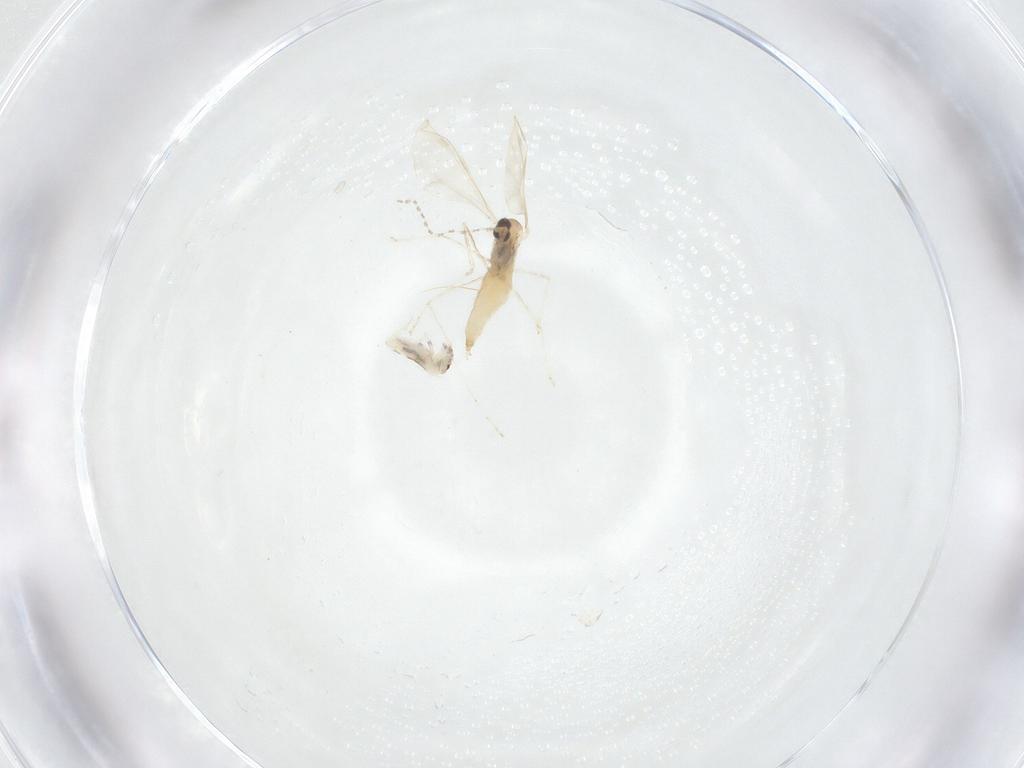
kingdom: Animalia
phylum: Arthropoda
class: Insecta
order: Diptera
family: Cecidomyiidae
